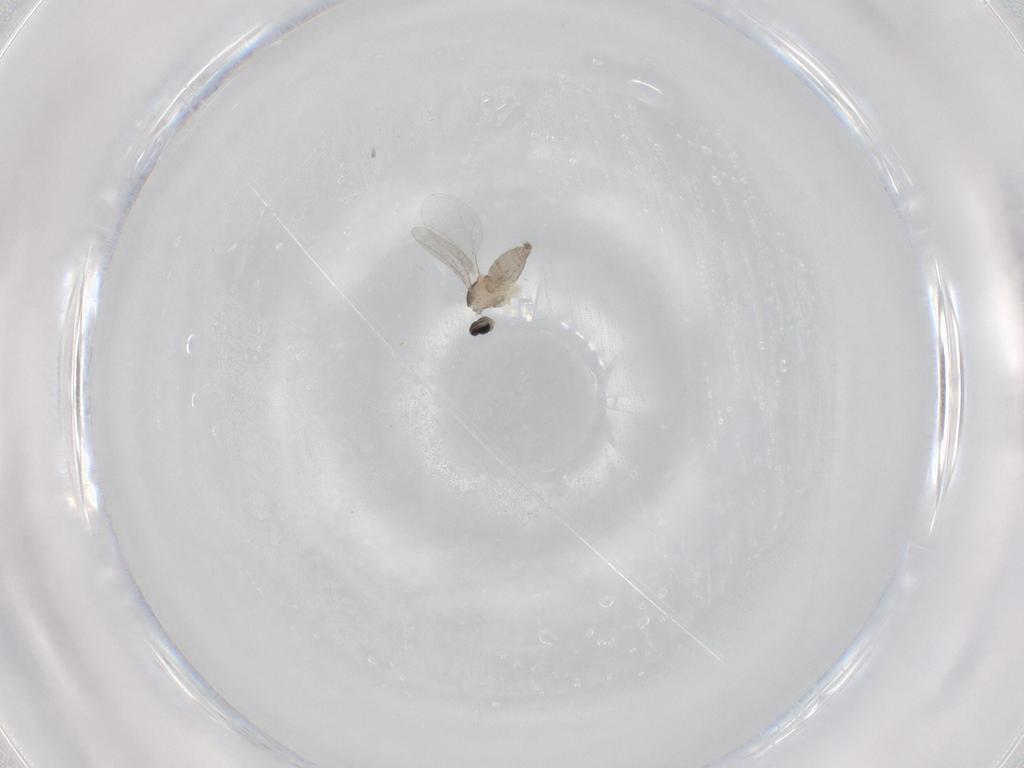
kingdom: Animalia
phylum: Arthropoda
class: Insecta
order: Diptera
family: Cecidomyiidae
